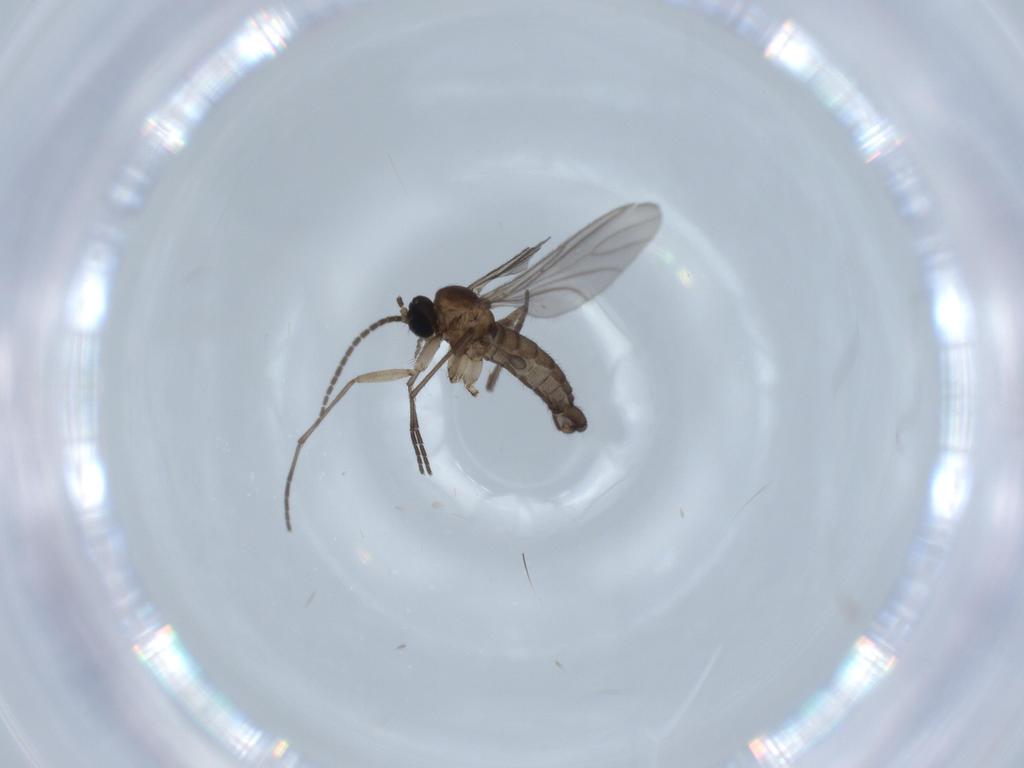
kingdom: Animalia
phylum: Arthropoda
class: Insecta
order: Diptera
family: Sciaridae
